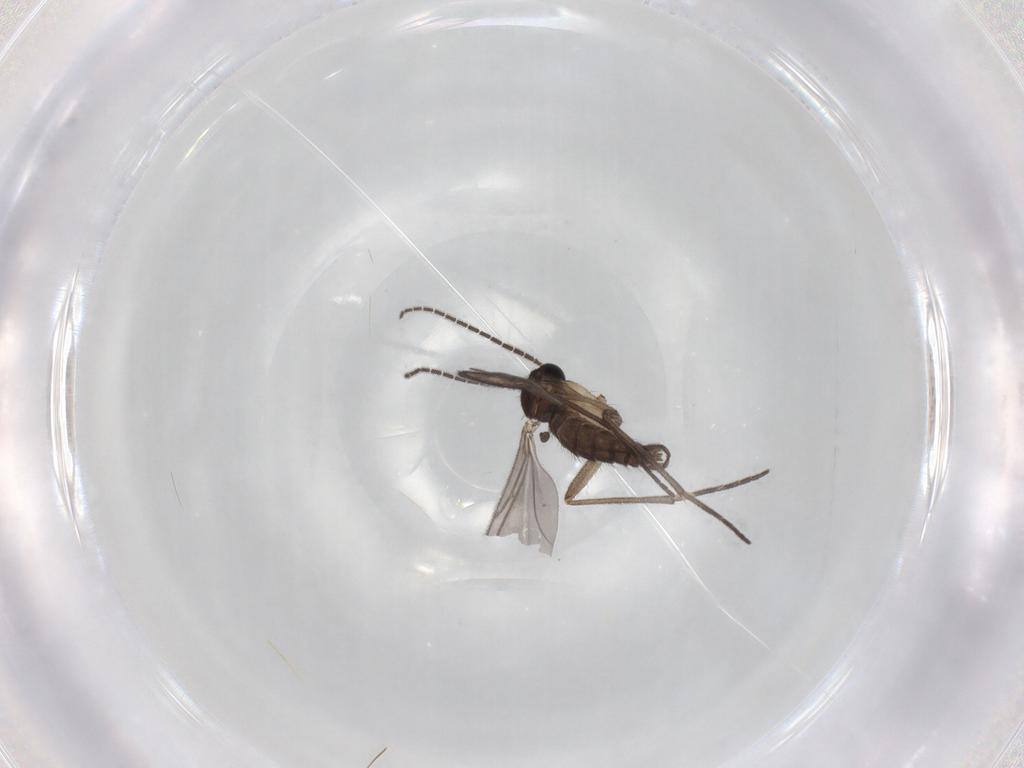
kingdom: Animalia
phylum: Arthropoda
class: Insecta
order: Diptera
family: Sciaridae
